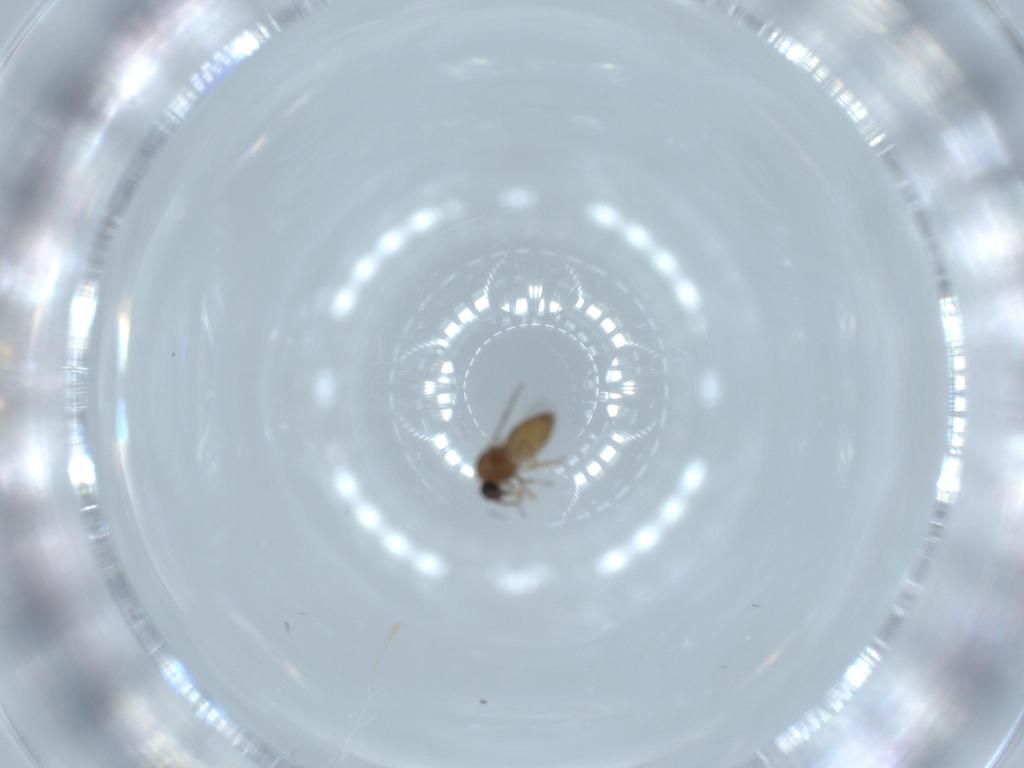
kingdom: Animalia
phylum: Arthropoda
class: Insecta
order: Diptera
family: Ceratopogonidae
